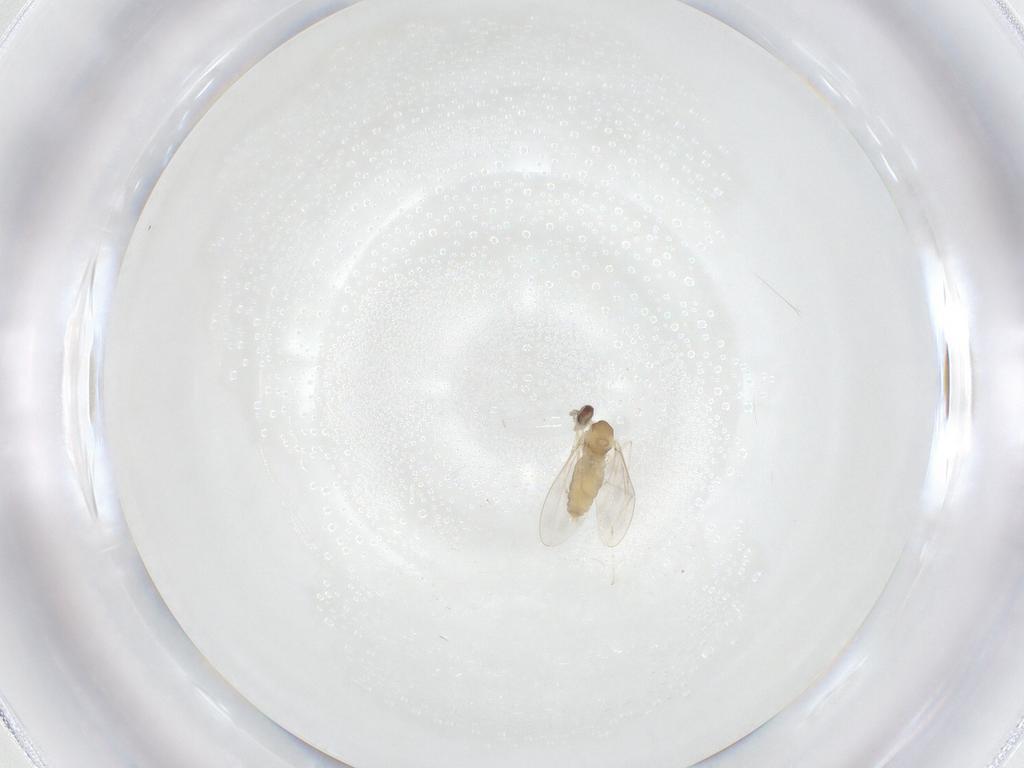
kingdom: Animalia
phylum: Arthropoda
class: Insecta
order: Diptera
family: Cecidomyiidae
